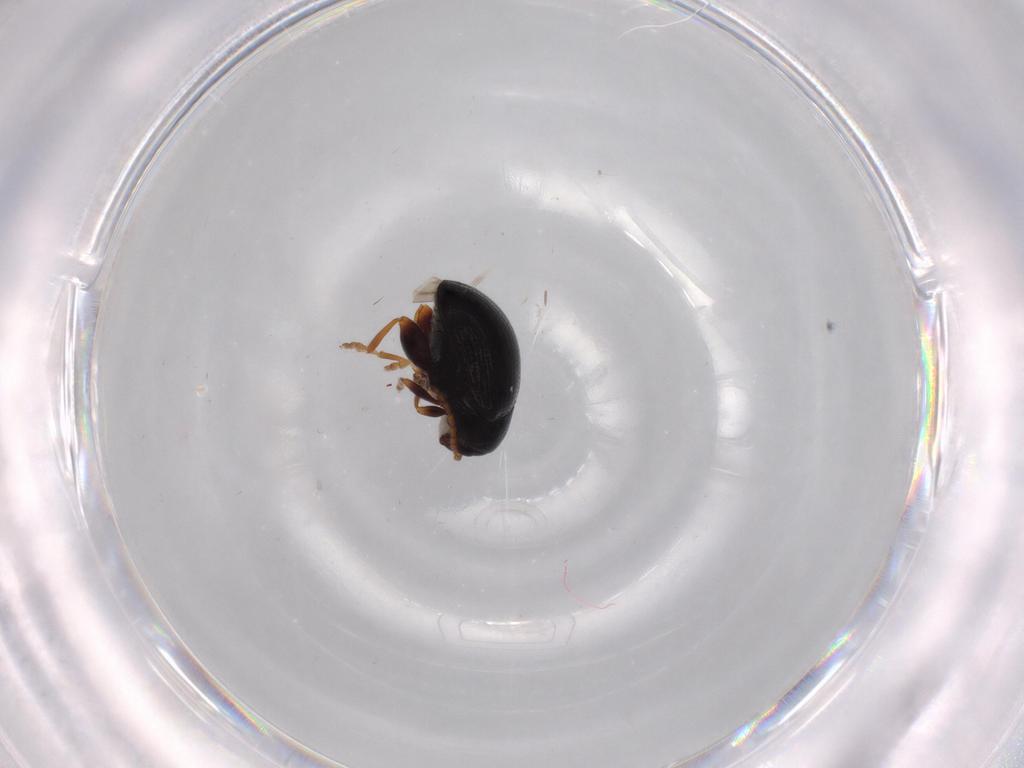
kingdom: Animalia
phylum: Arthropoda
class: Insecta
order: Coleoptera
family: Chrysomelidae
